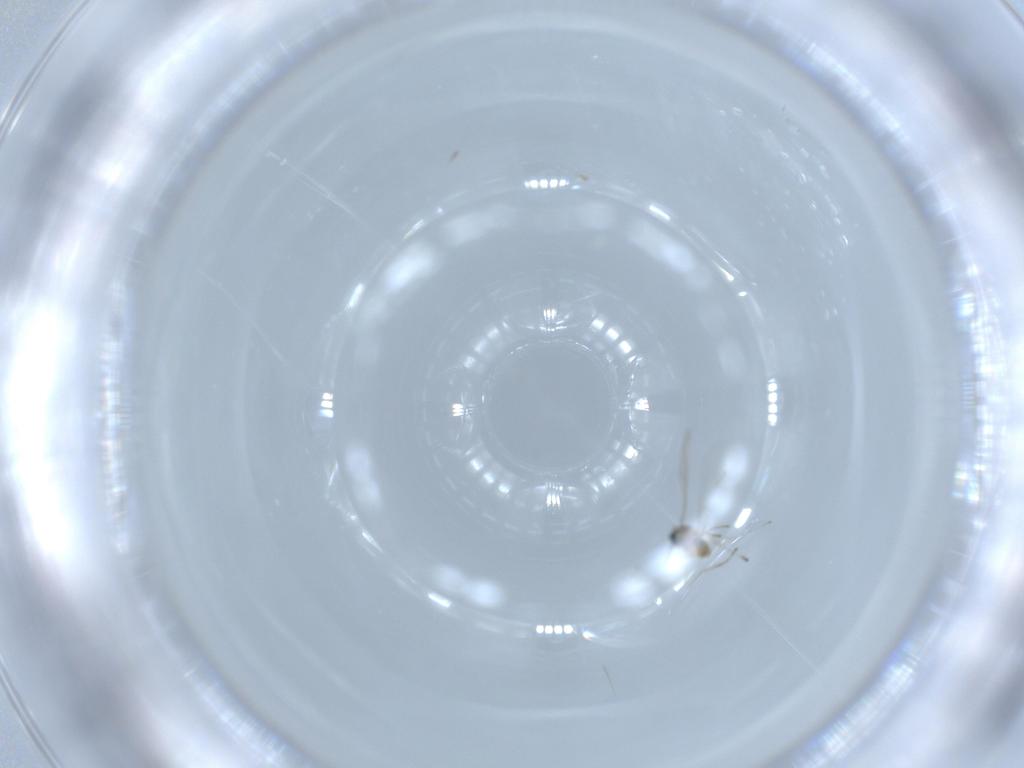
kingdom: Animalia
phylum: Arthropoda
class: Insecta
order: Diptera
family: Cecidomyiidae
